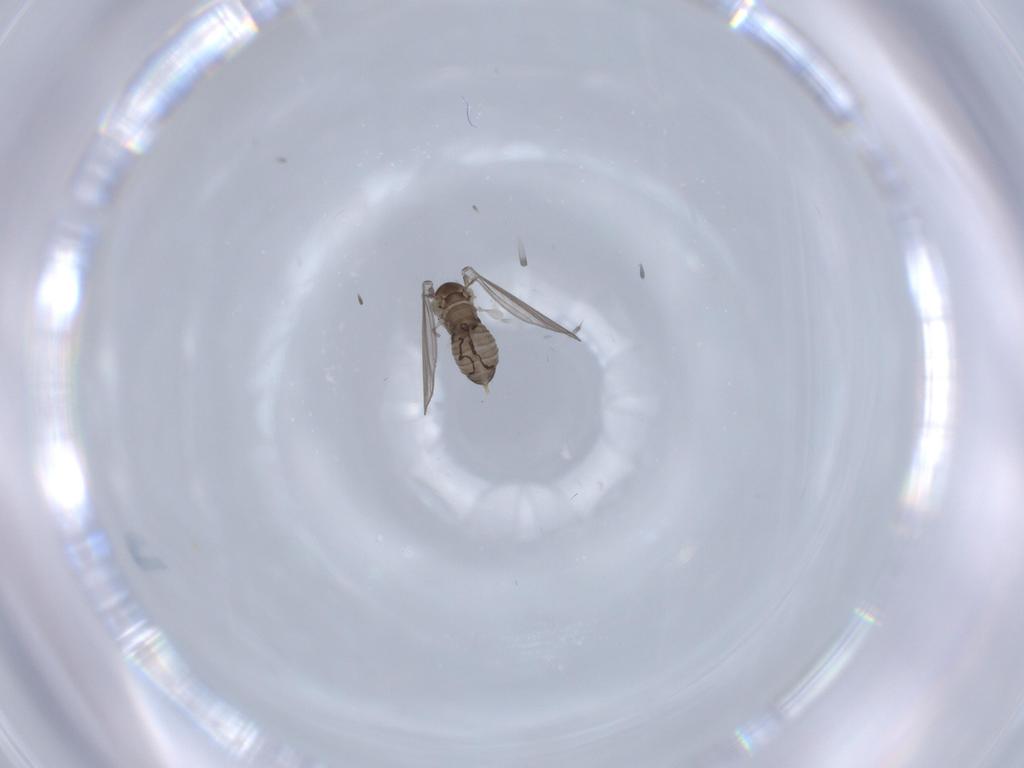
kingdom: Animalia
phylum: Arthropoda
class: Insecta
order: Diptera
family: Psychodidae
